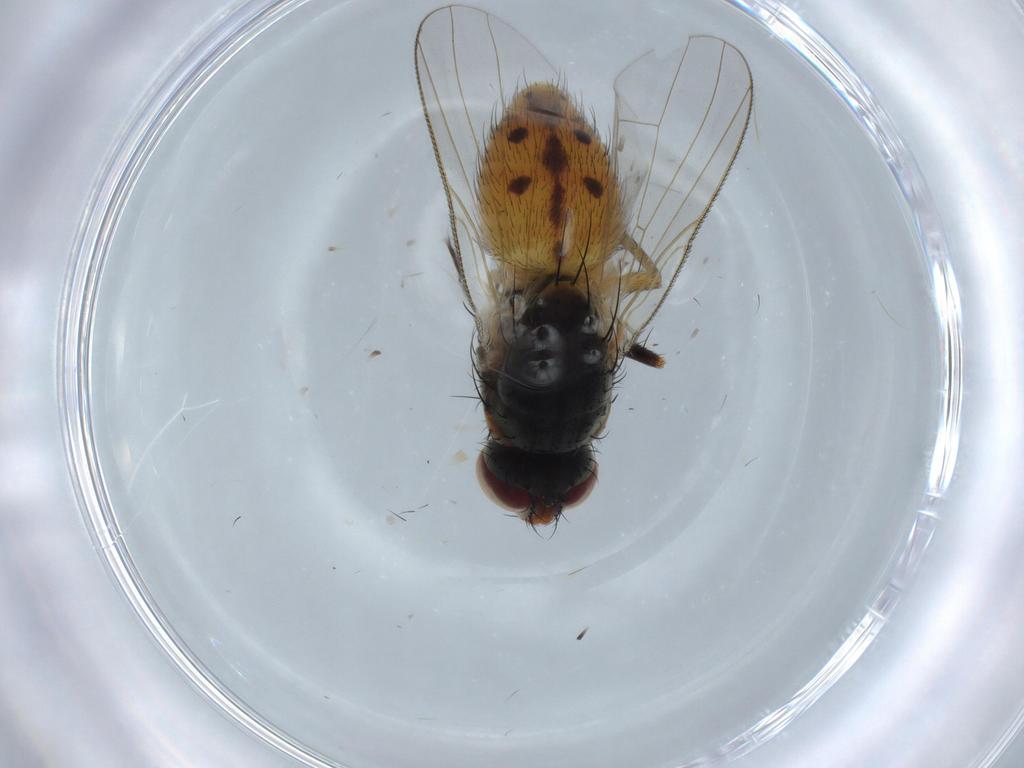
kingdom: Animalia
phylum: Arthropoda
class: Insecta
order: Diptera
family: Muscidae
